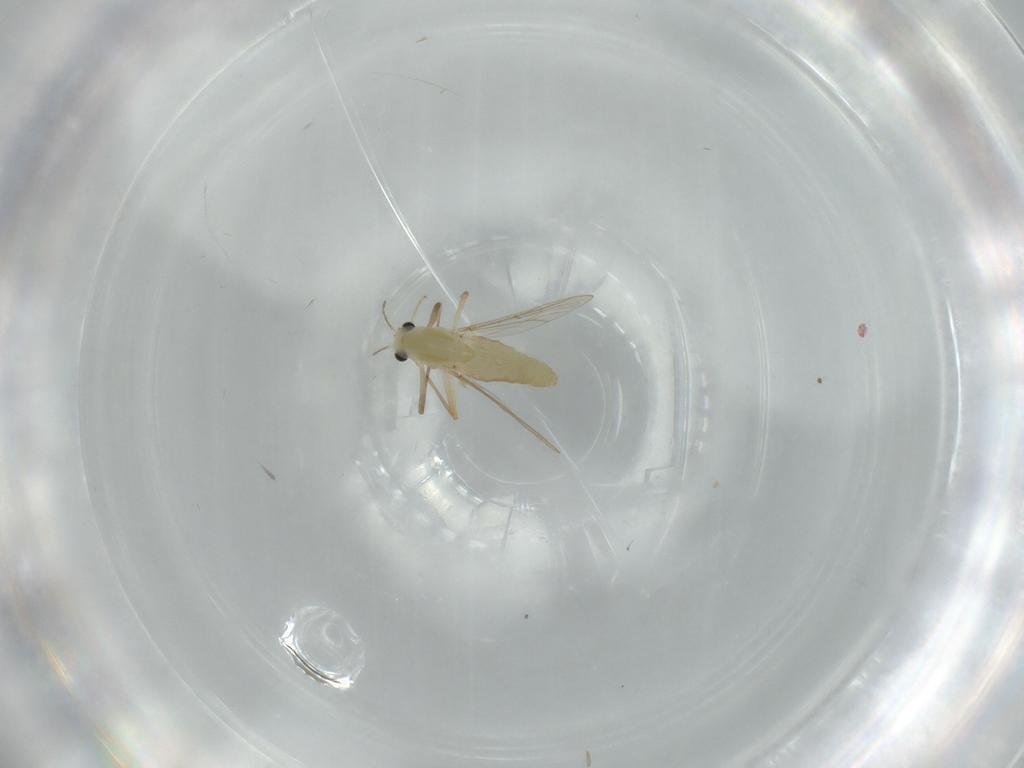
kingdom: Animalia
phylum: Arthropoda
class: Insecta
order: Diptera
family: Chironomidae
